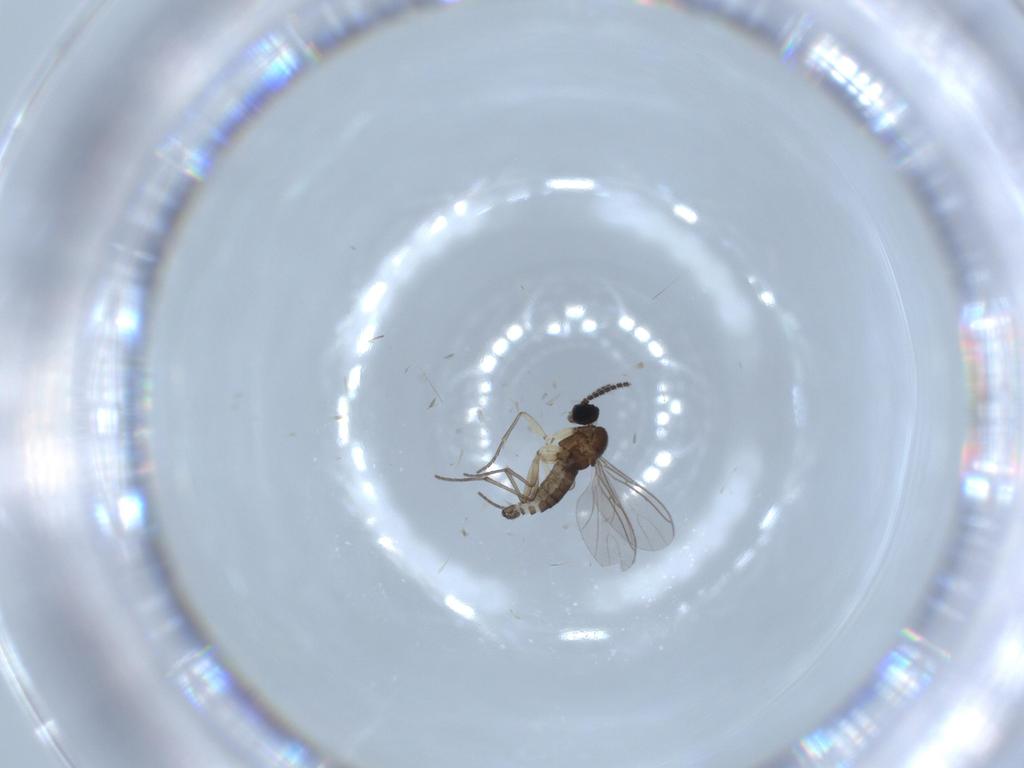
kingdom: Animalia
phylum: Arthropoda
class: Insecta
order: Diptera
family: Sciaridae
